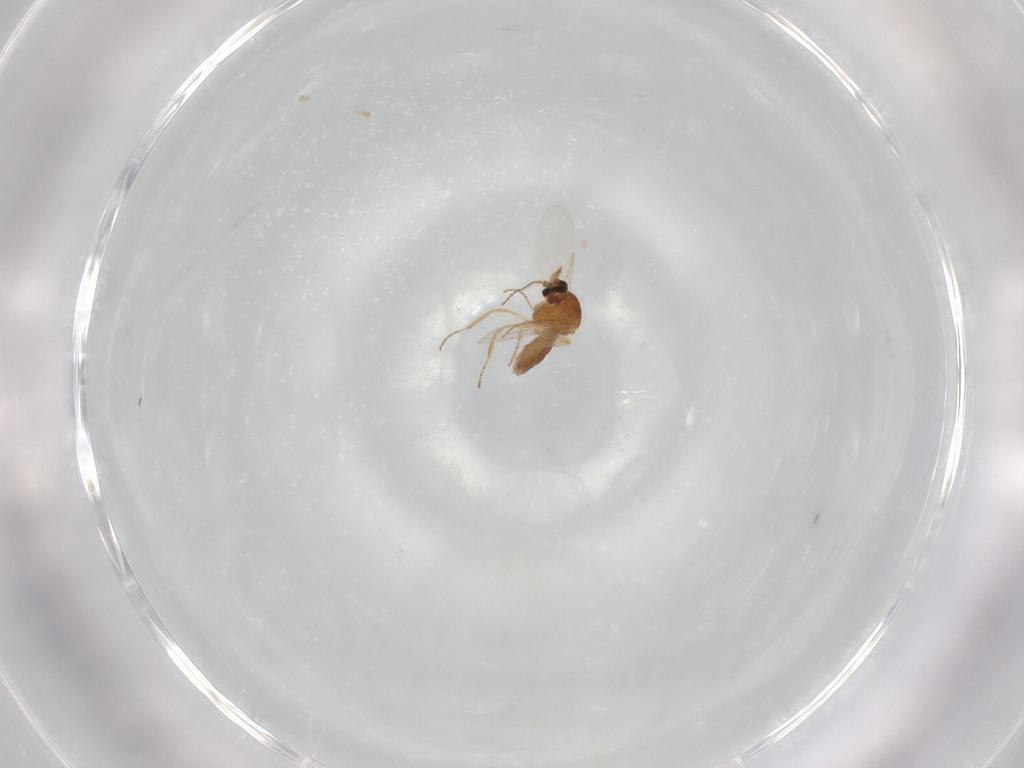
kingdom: Animalia
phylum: Arthropoda
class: Insecta
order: Diptera
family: Ceratopogonidae
